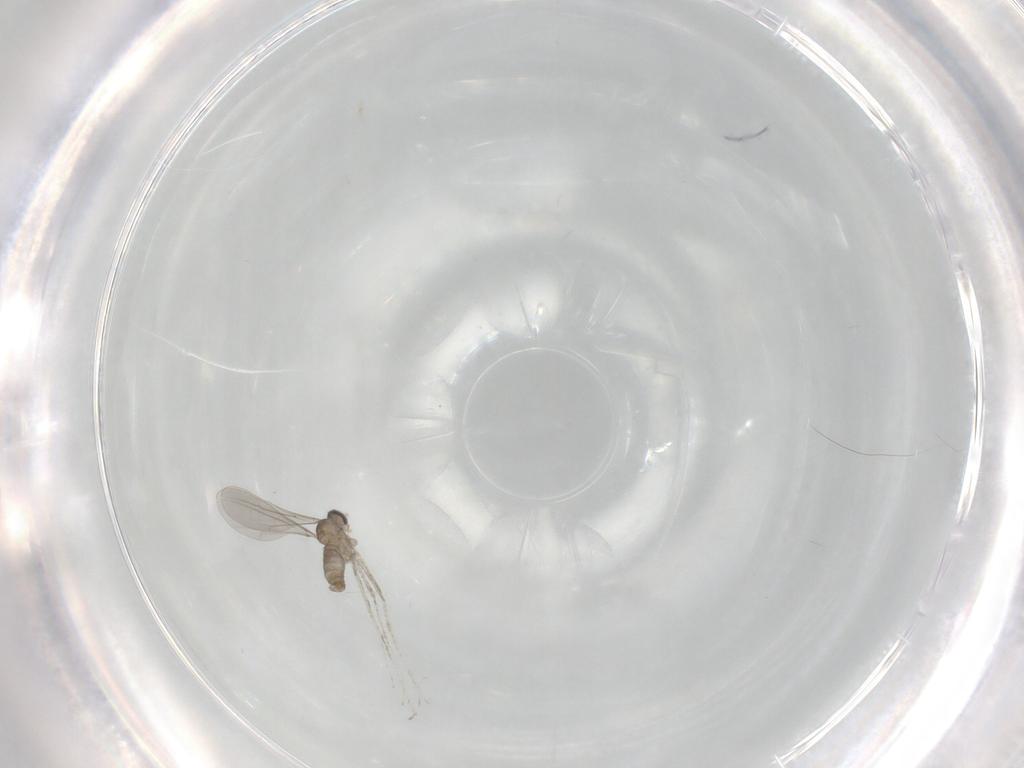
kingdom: Animalia
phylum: Arthropoda
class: Insecta
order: Diptera
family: Cecidomyiidae
